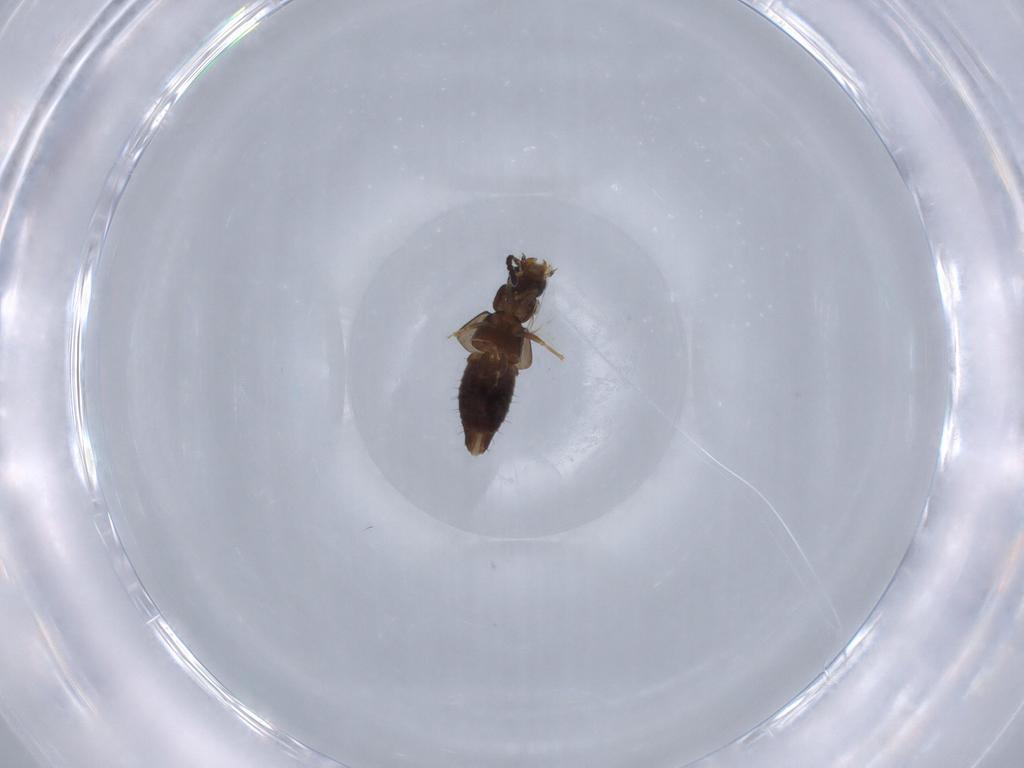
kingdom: Animalia
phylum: Arthropoda
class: Insecta
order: Coleoptera
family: Staphylinidae
